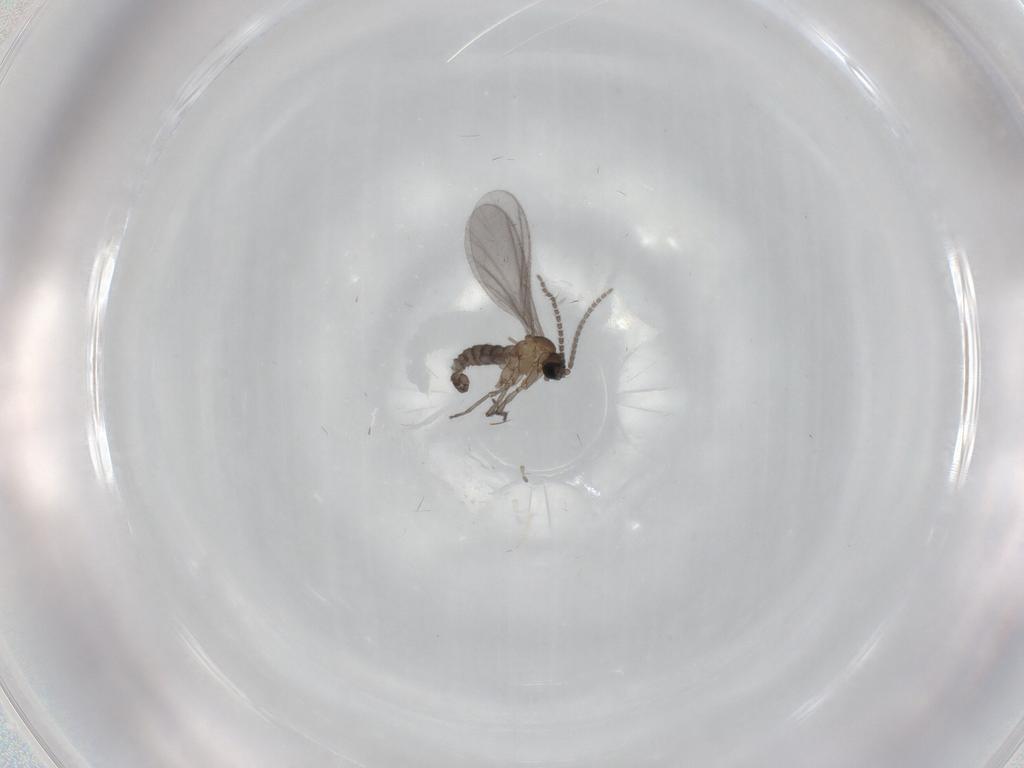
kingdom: Animalia
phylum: Arthropoda
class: Insecta
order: Diptera
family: Sciaridae
